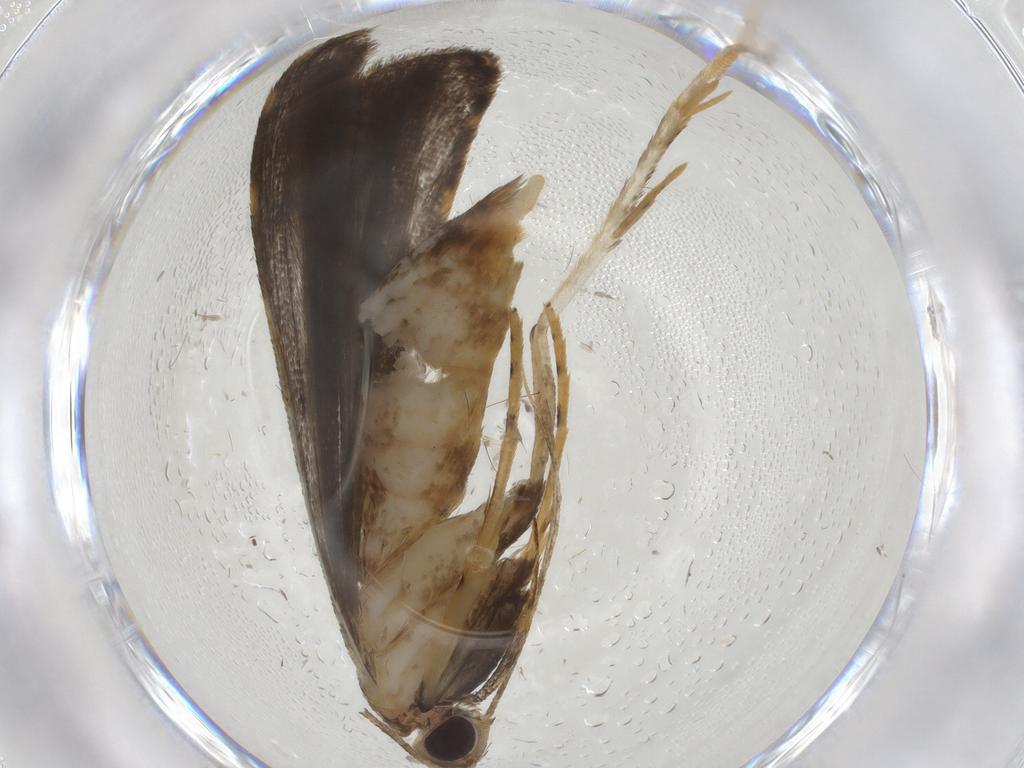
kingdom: Animalia
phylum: Arthropoda
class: Insecta
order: Lepidoptera
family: Cosmopterigidae
